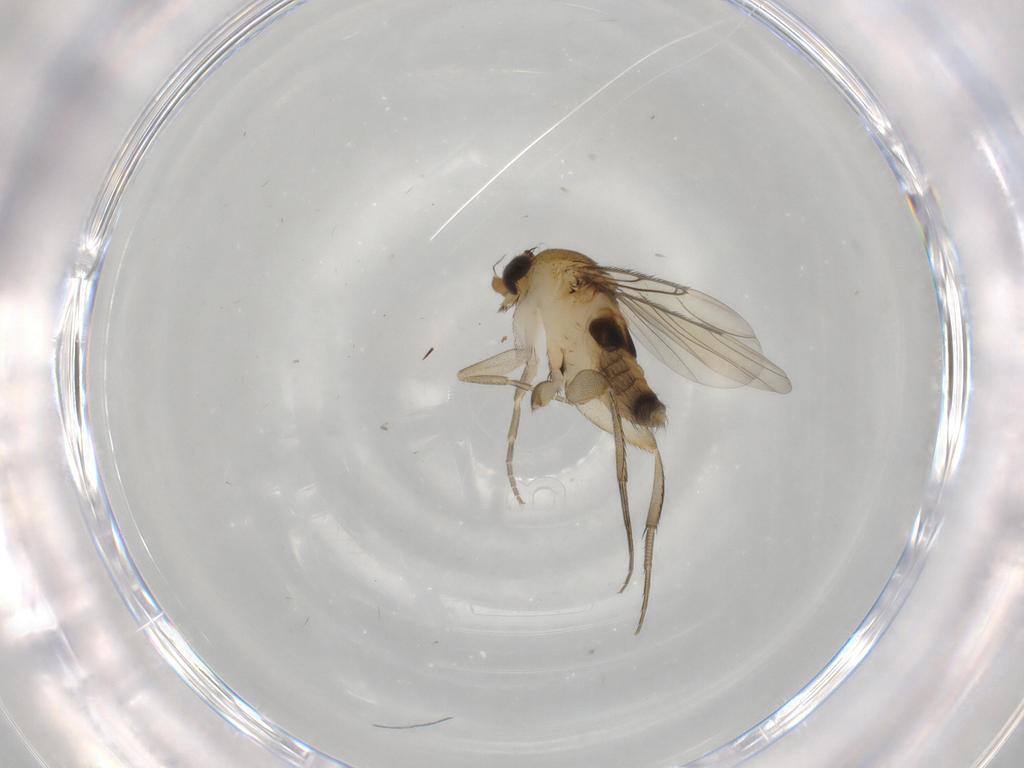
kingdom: Animalia
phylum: Arthropoda
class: Insecta
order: Diptera
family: Phoridae
